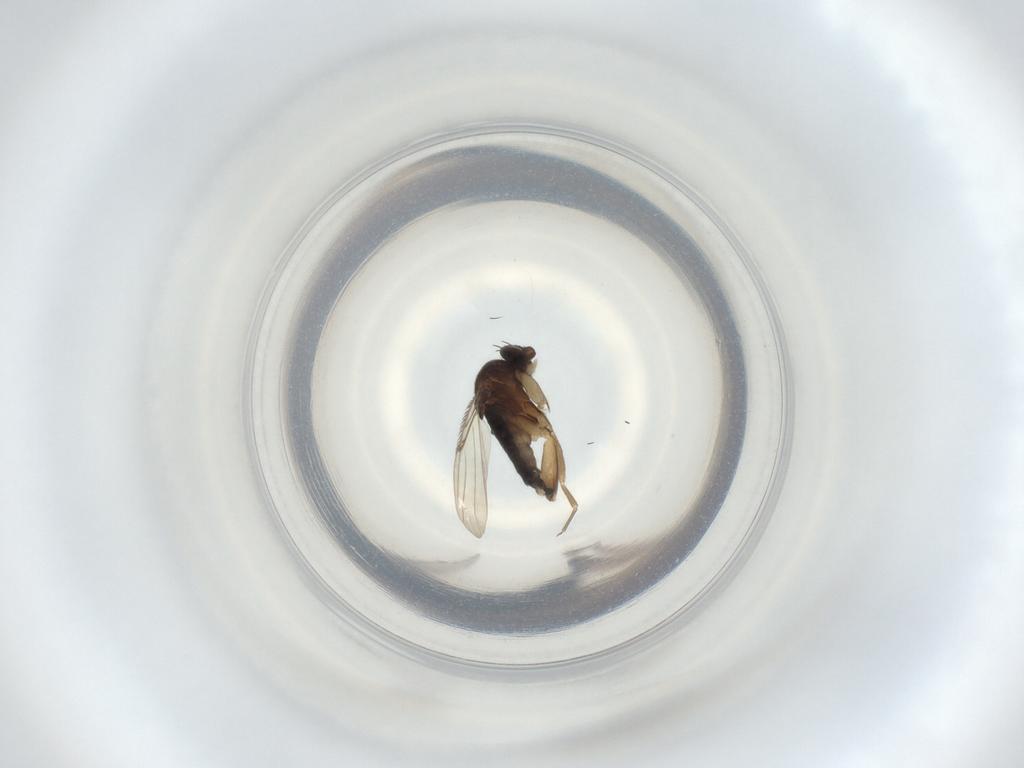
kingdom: Animalia
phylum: Arthropoda
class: Insecta
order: Diptera
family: Phoridae
